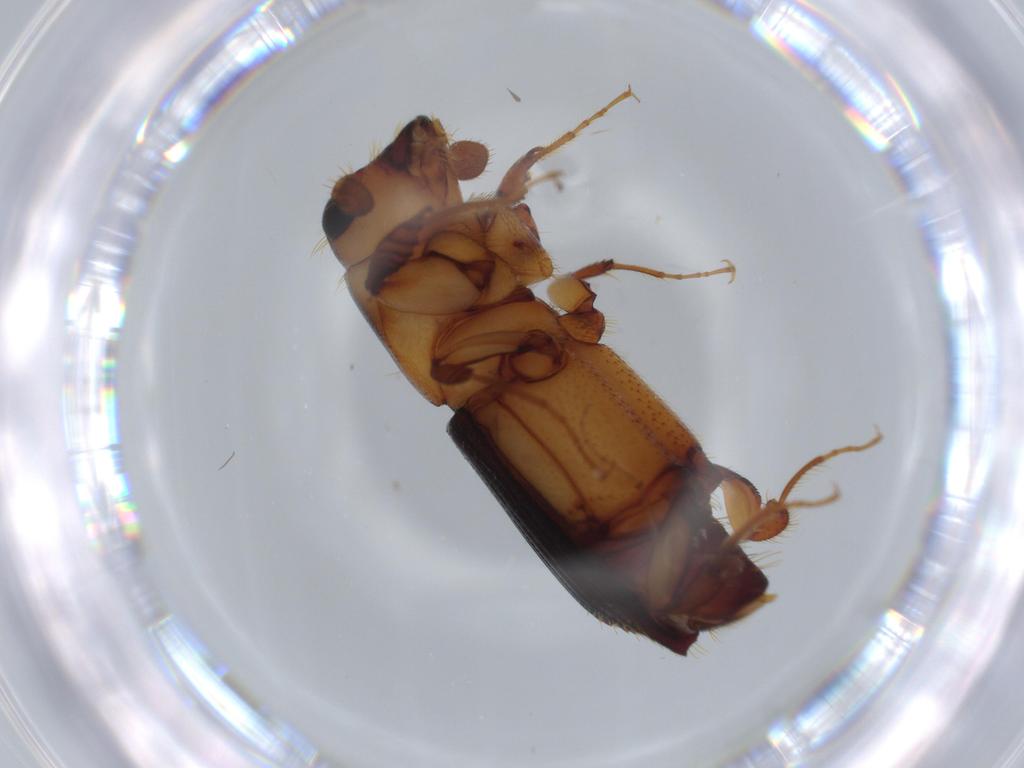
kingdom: Animalia
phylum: Arthropoda
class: Insecta
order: Coleoptera
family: Curculionidae
